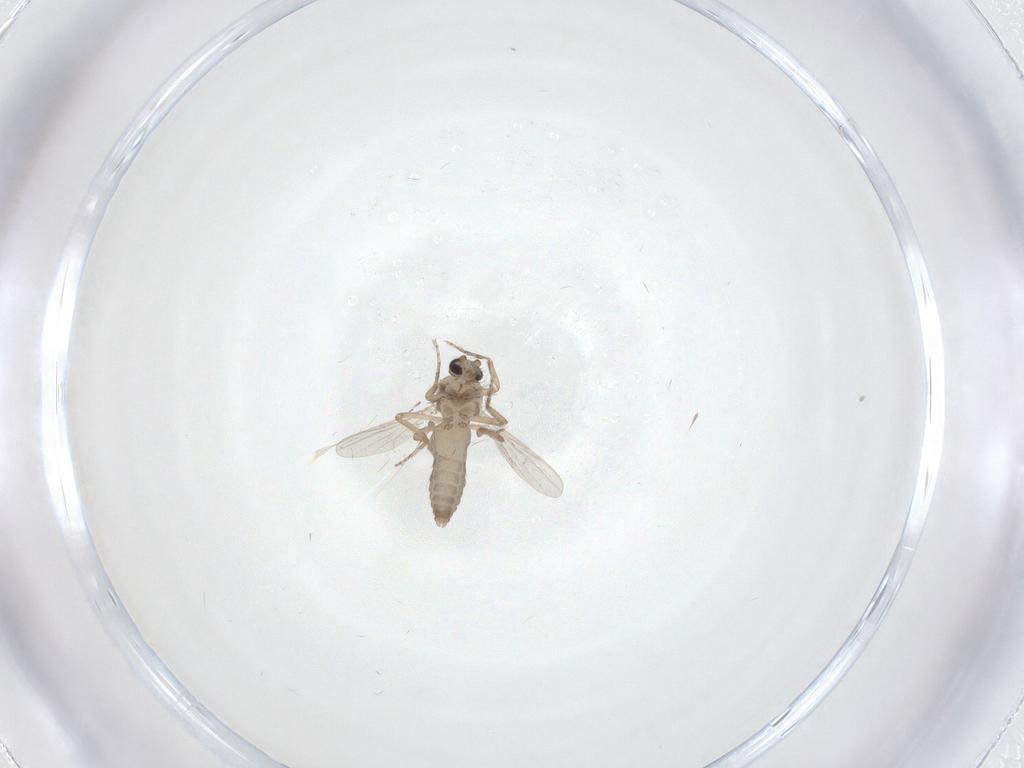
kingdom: Animalia
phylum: Arthropoda
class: Insecta
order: Diptera
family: Ceratopogonidae
